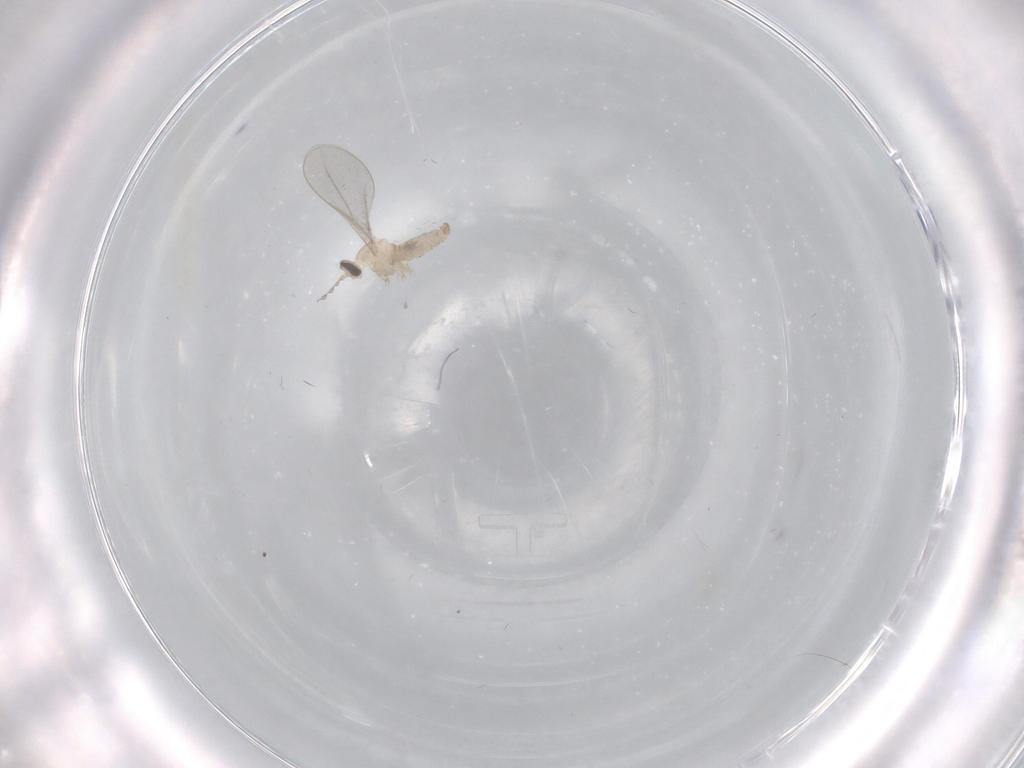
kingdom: Animalia
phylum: Arthropoda
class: Insecta
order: Diptera
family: Cecidomyiidae
